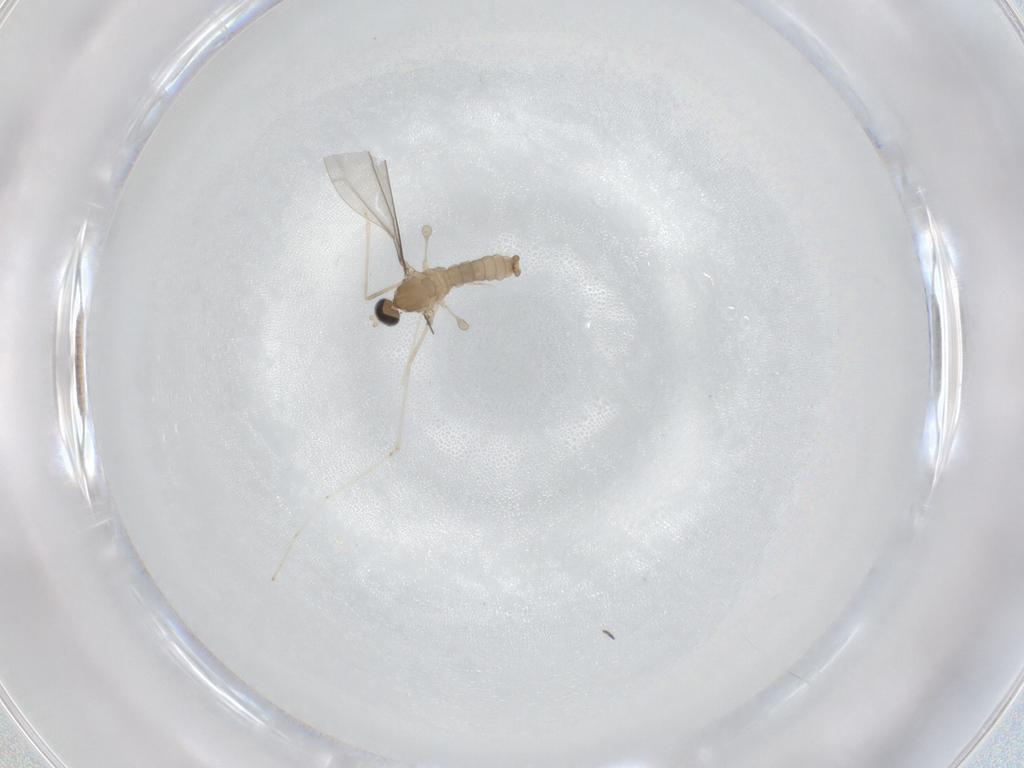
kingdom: Animalia
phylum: Arthropoda
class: Insecta
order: Diptera
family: Cecidomyiidae
